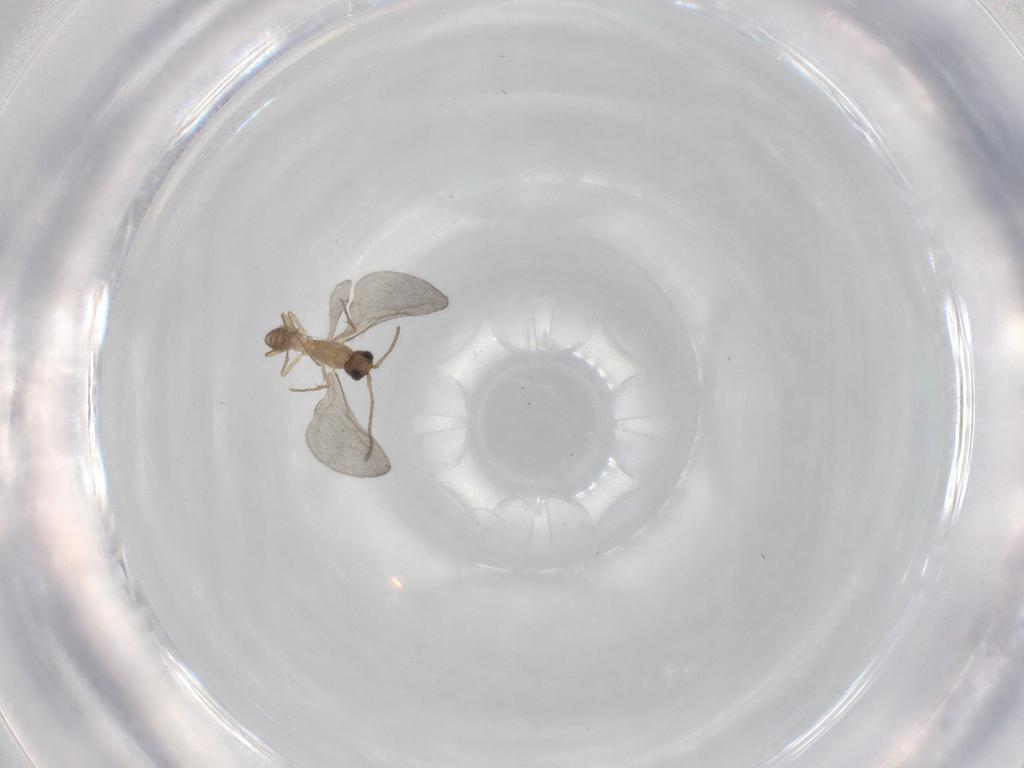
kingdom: Animalia
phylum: Arthropoda
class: Insecta
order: Hymenoptera
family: Formicidae
